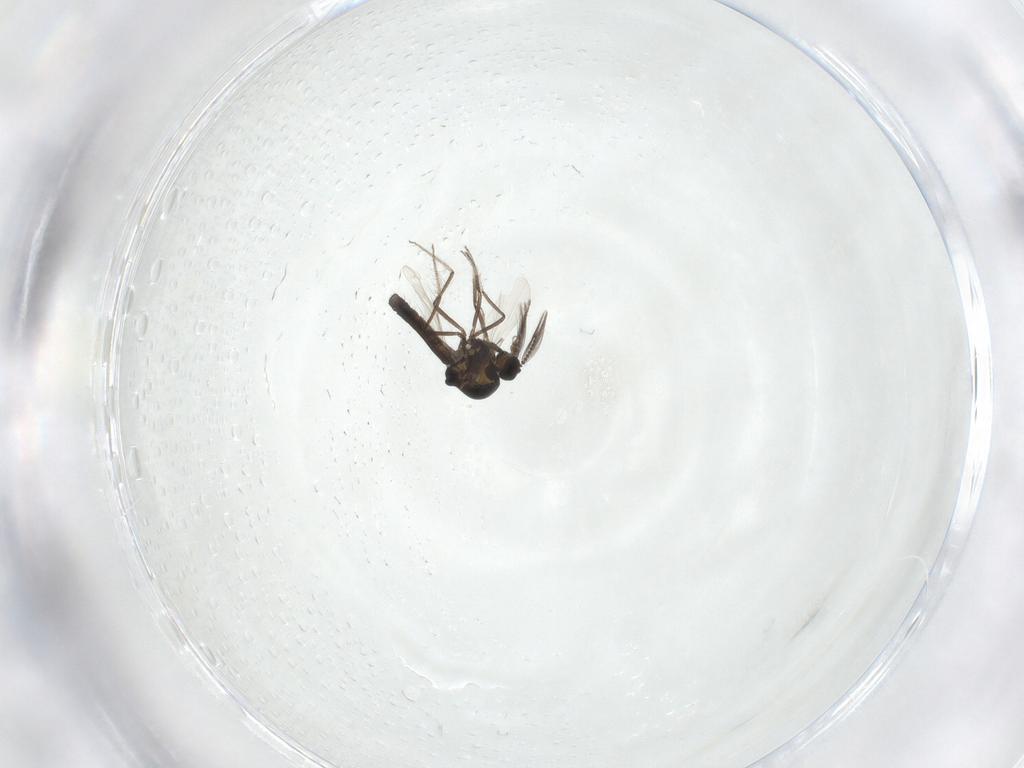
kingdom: Animalia
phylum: Arthropoda
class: Insecta
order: Diptera
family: Ceratopogonidae
